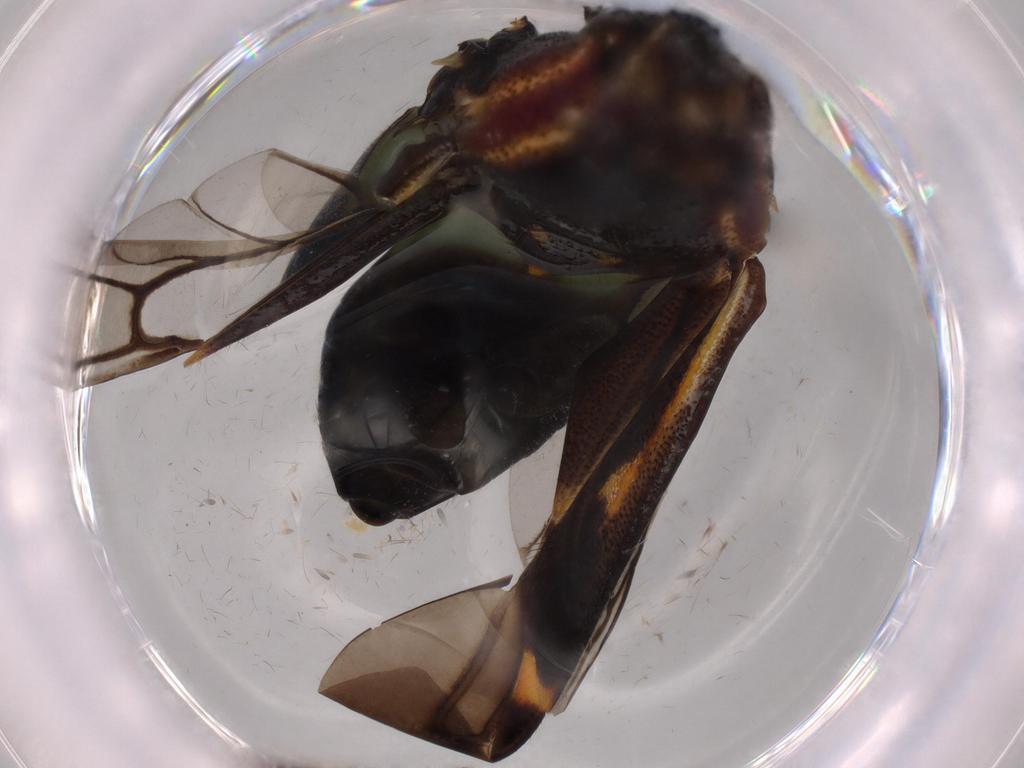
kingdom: Animalia
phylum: Arthropoda
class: Insecta
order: Hemiptera
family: Miridae
